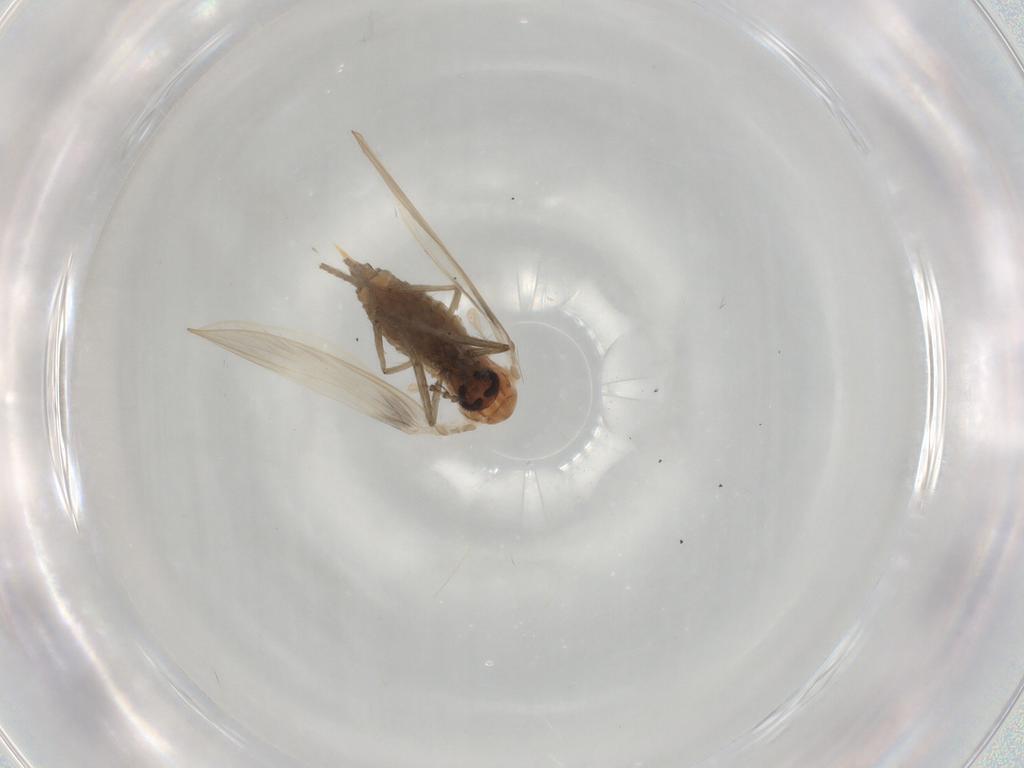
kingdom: Animalia
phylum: Arthropoda
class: Insecta
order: Diptera
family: Psychodidae
